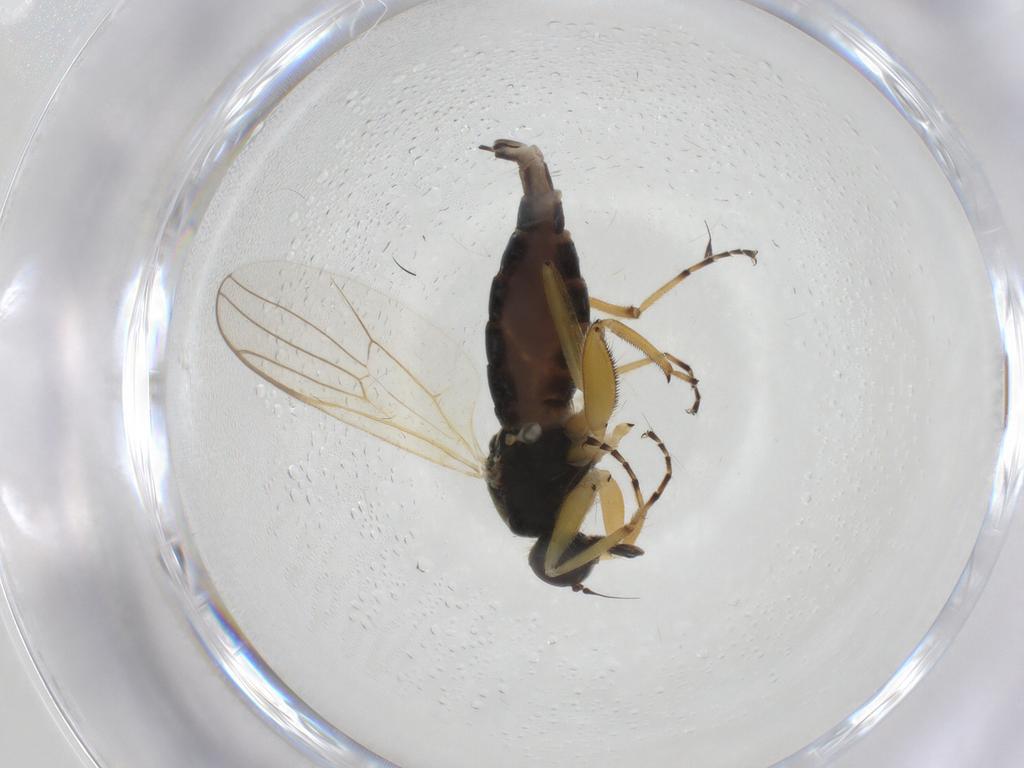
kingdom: Animalia
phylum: Arthropoda
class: Insecta
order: Diptera
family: Hybotidae
